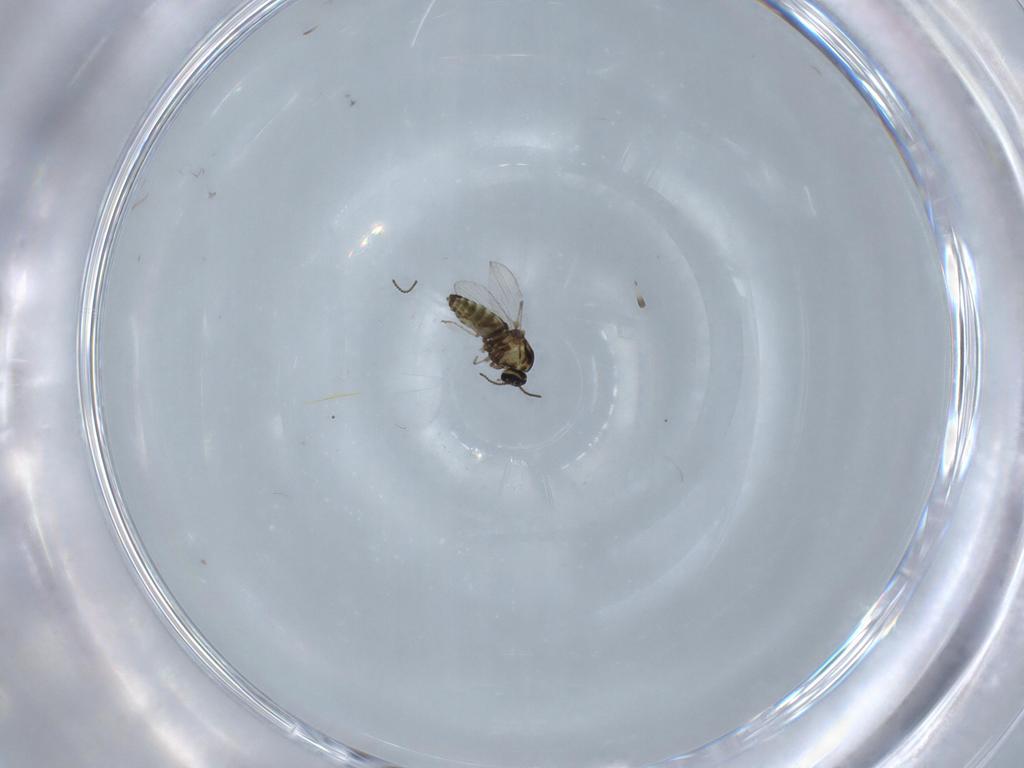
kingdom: Animalia
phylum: Arthropoda
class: Insecta
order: Diptera
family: Ceratopogonidae
